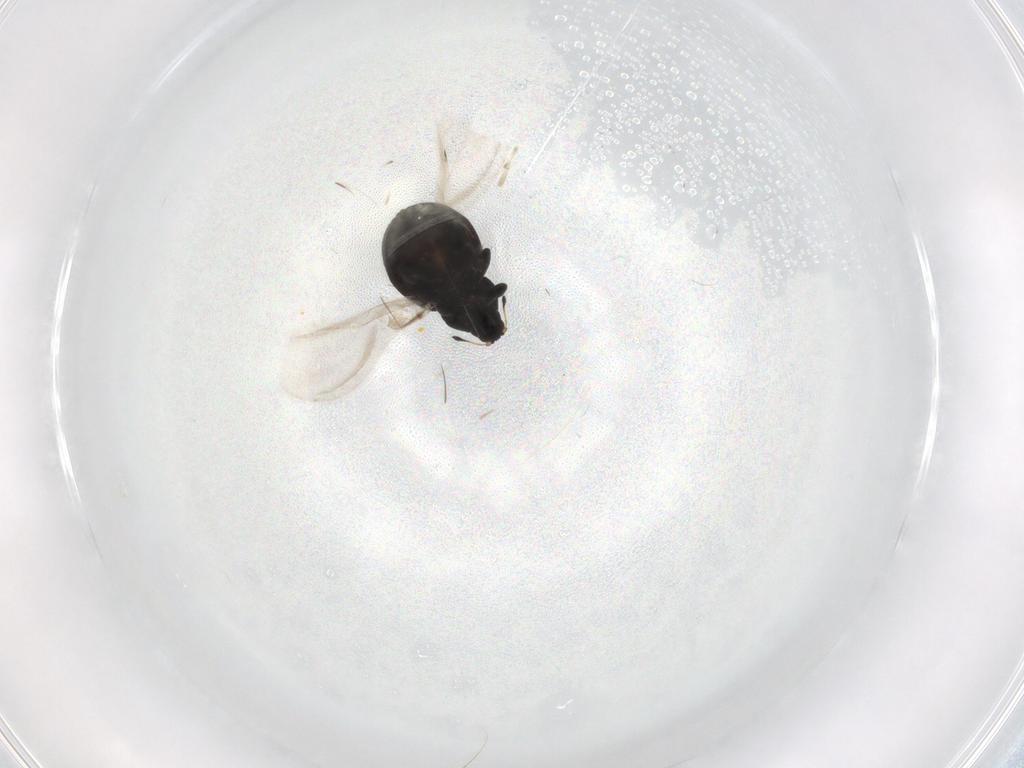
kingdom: Animalia
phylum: Arthropoda
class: Insecta
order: Coleoptera
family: Curculionidae
